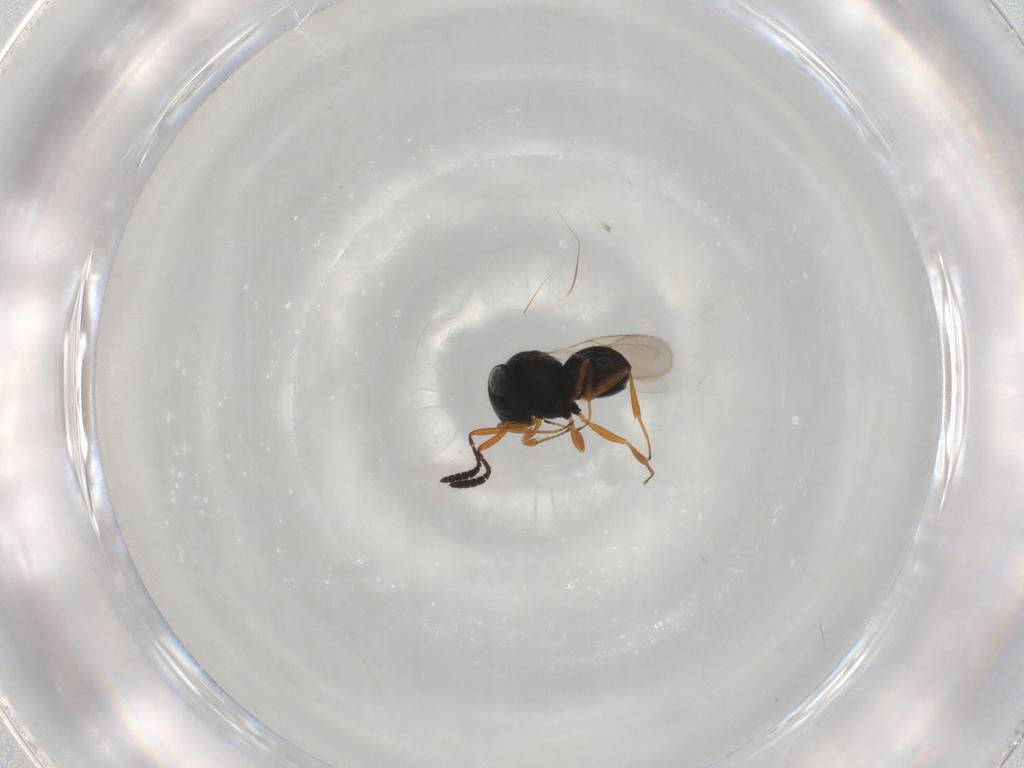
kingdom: Animalia
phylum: Arthropoda
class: Insecta
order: Hymenoptera
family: Scelionidae
